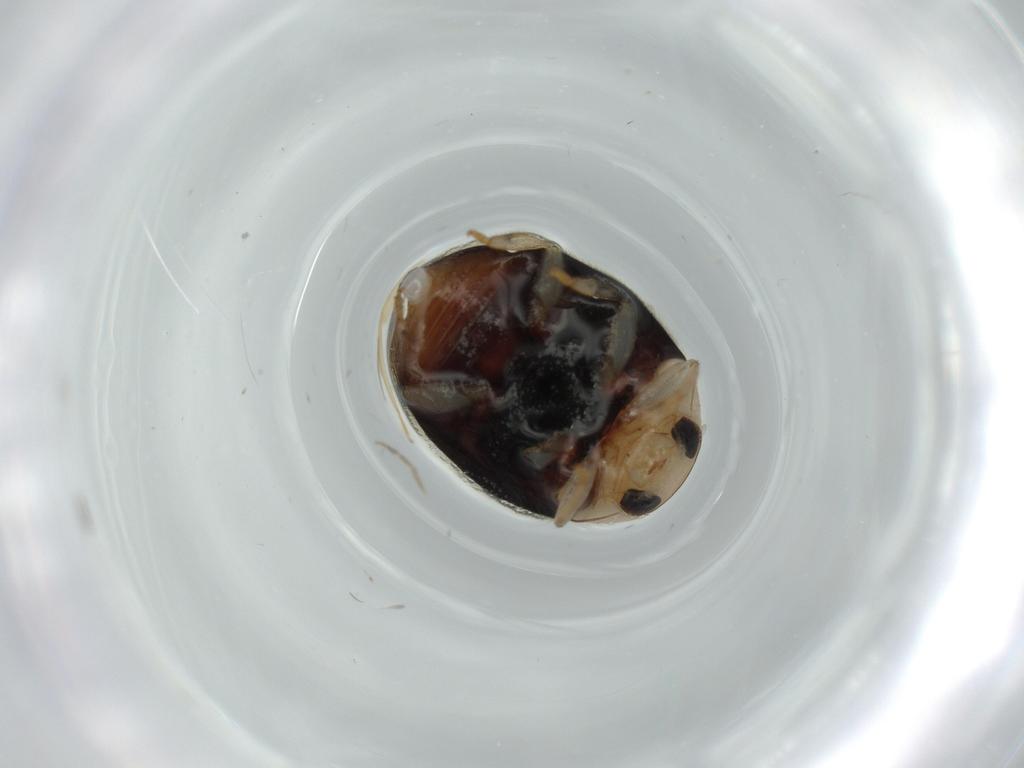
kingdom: Animalia
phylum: Arthropoda
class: Insecta
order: Coleoptera
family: Coccinellidae
